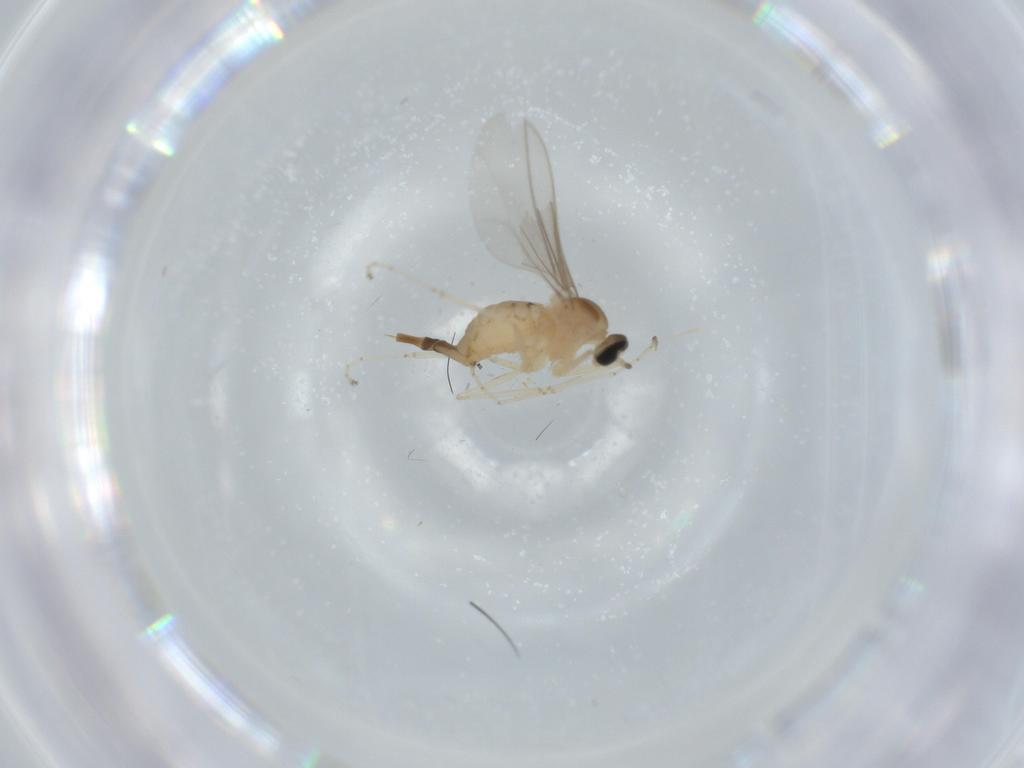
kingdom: Animalia
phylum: Arthropoda
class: Insecta
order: Diptera
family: Cecidomyiidae
